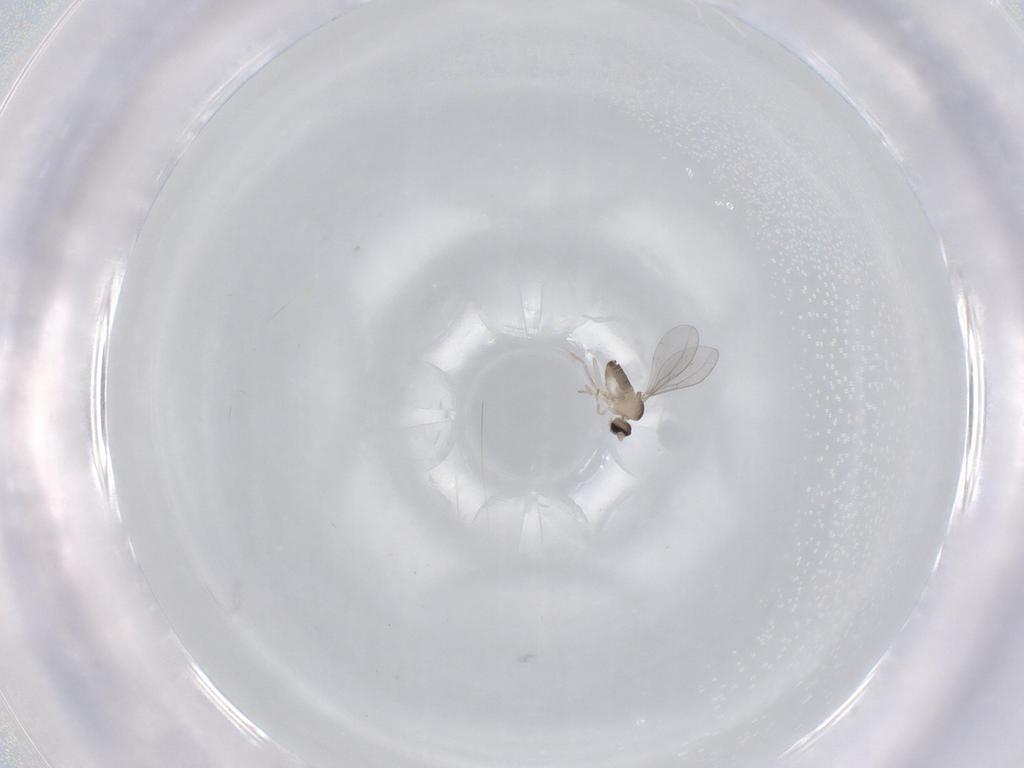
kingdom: Animalia
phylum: Arthropoda
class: Insecta
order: Diptera
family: Cecidomyiidae
